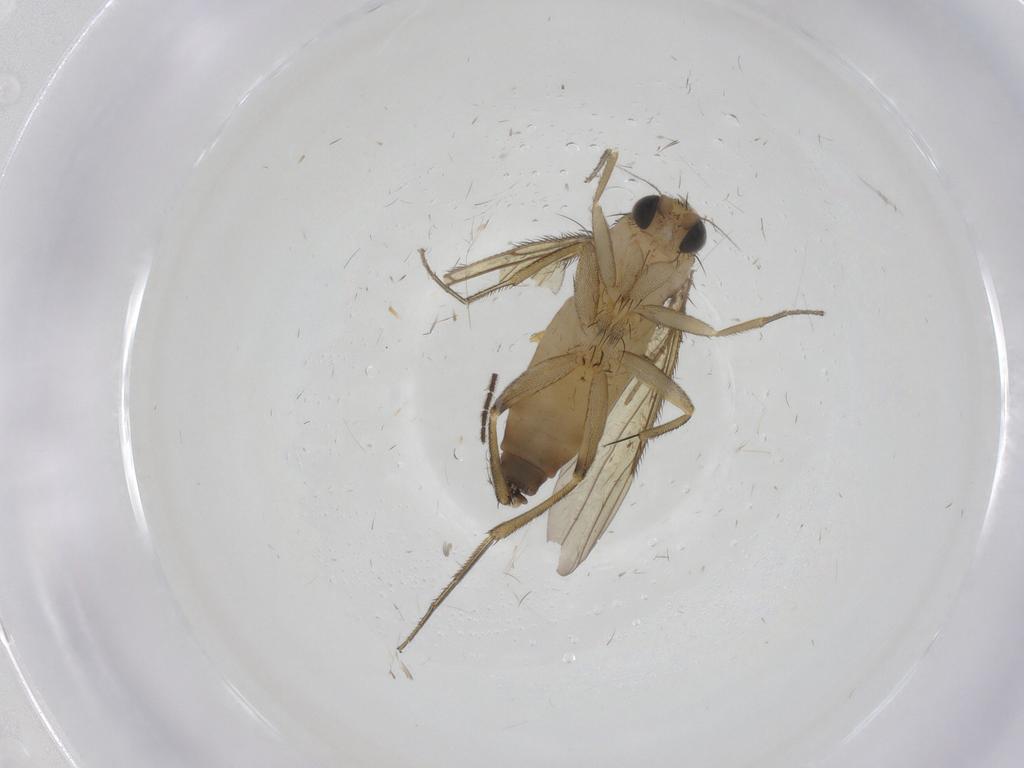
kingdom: Animalia
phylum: Arthropoda
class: Insecta
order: Diptera
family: Phoridae
